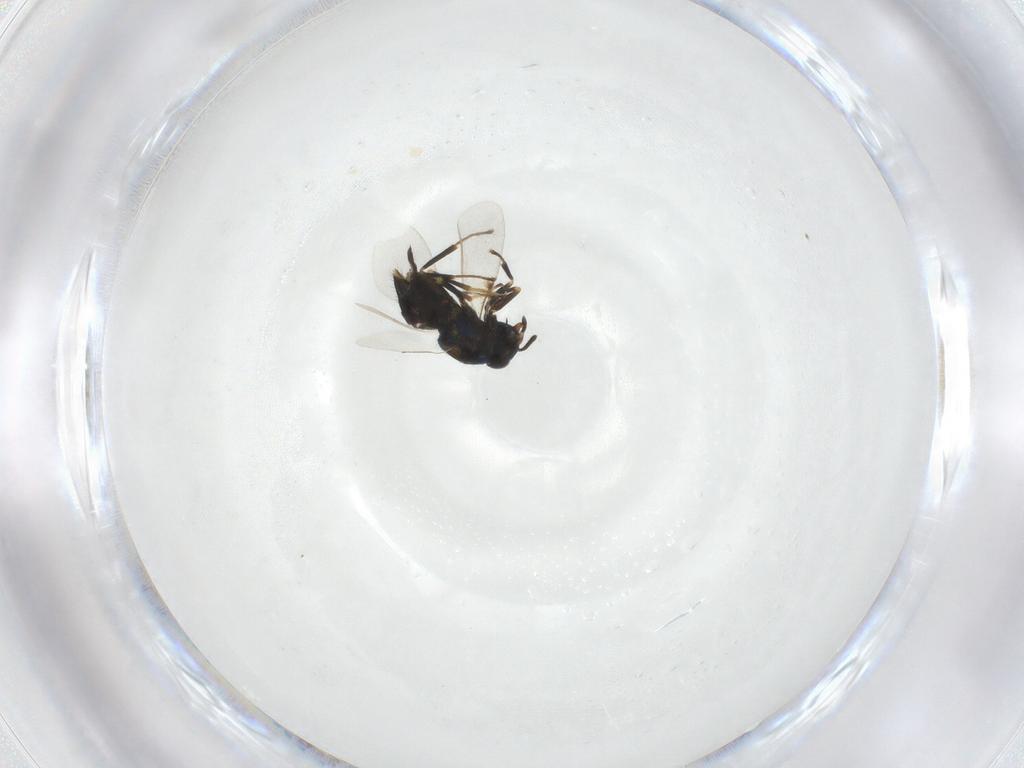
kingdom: Animalia
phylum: Arthropoda
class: Insecta
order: Hymenoptera
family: Encyrtidae
